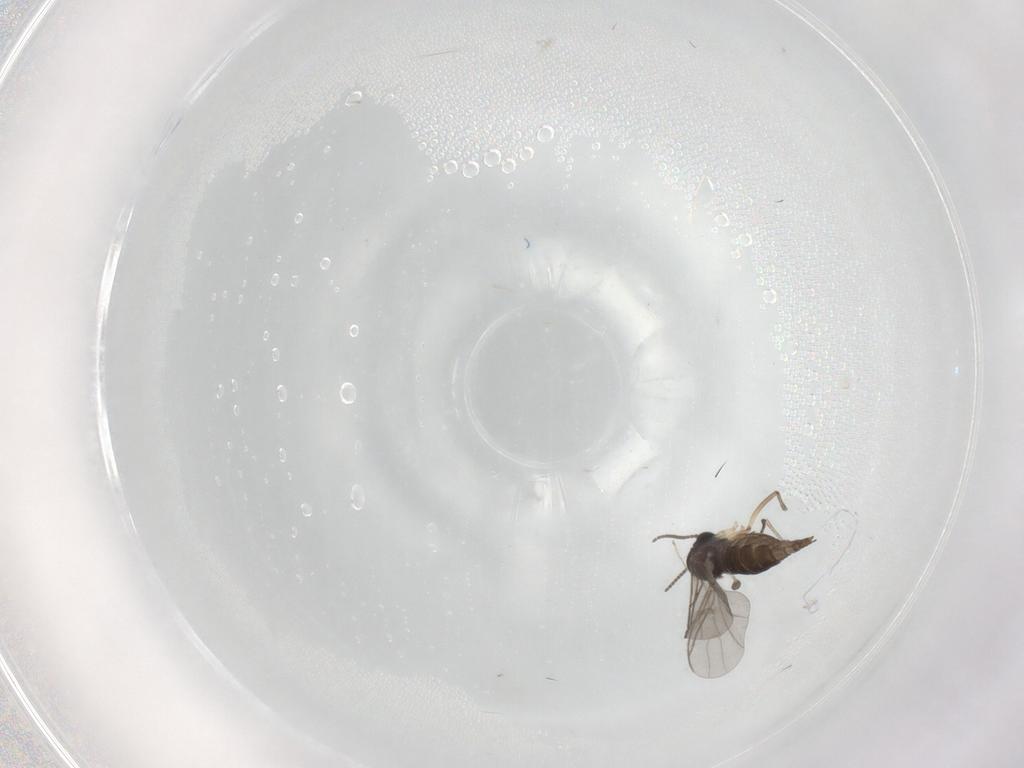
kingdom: Animalia
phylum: Arthropoda
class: Insecta
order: Diptera
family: Sciaridae
